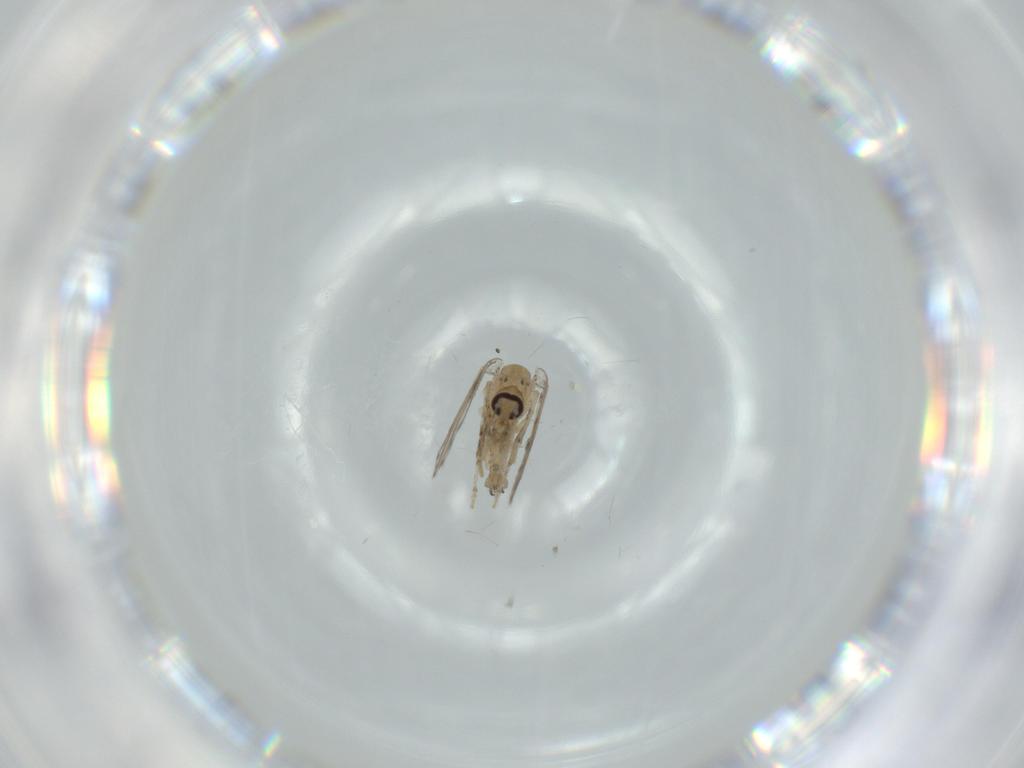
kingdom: Animalia
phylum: Arthropoda
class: Insecta
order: Diptera
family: Psychodidae
